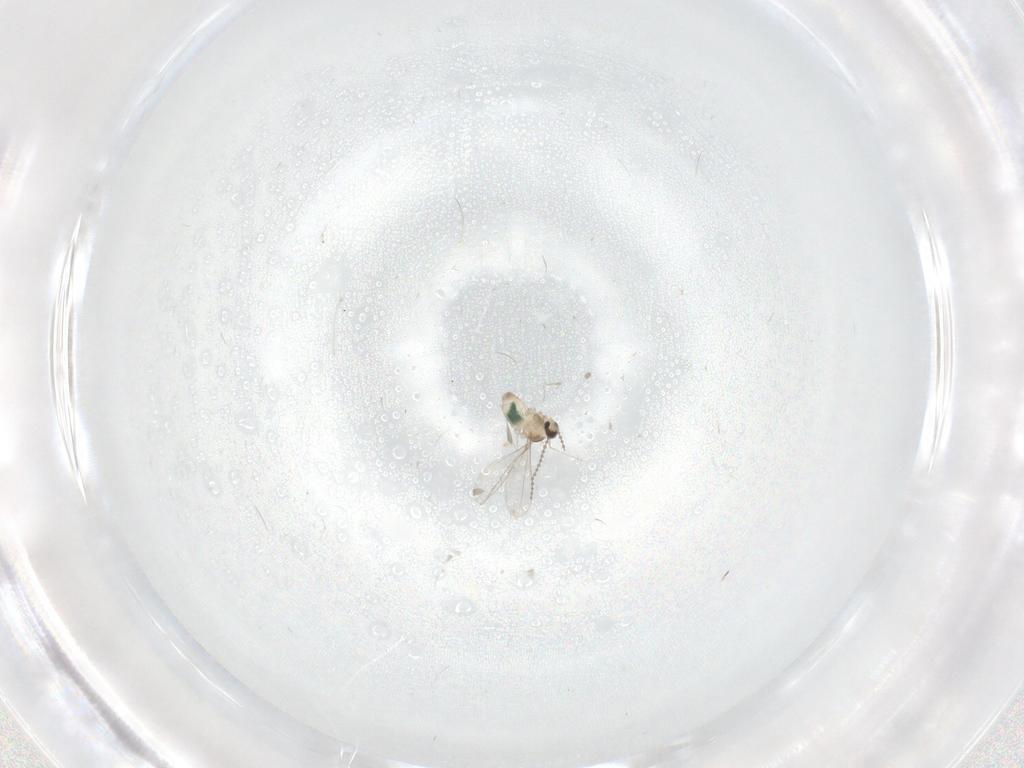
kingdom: Animalia
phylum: Arthropoda
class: Insecta
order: Diptera
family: Cecidomyiidae
